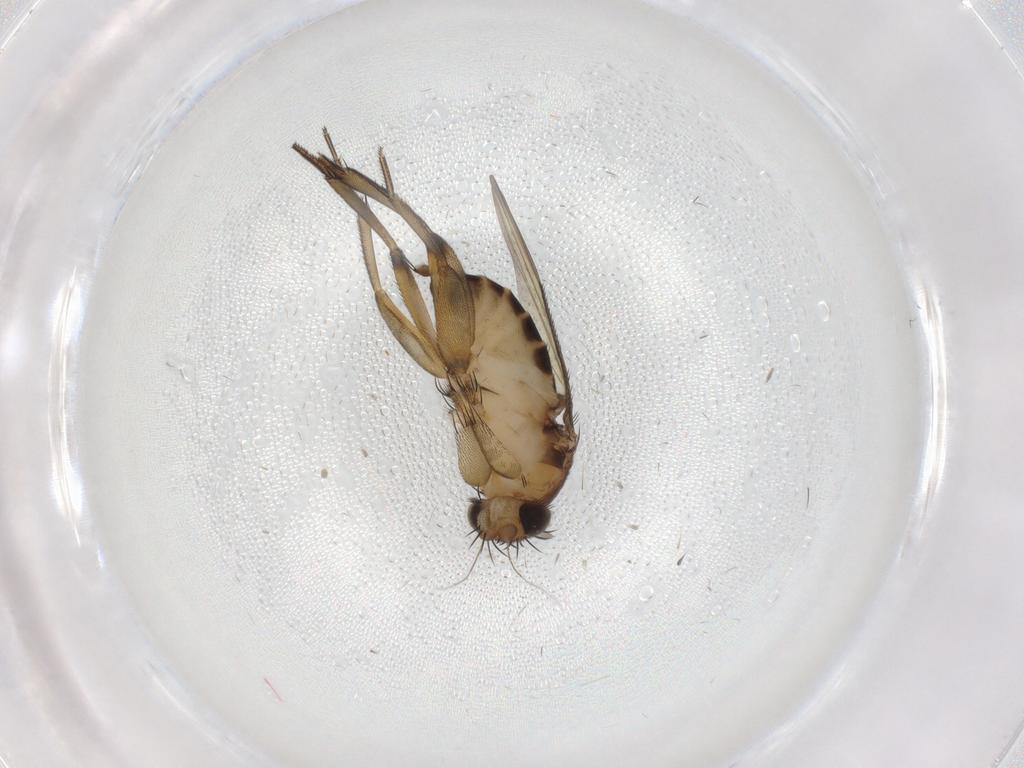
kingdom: Animalia
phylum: Arthropoda
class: Insecta
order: Diptera
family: Phoridae
